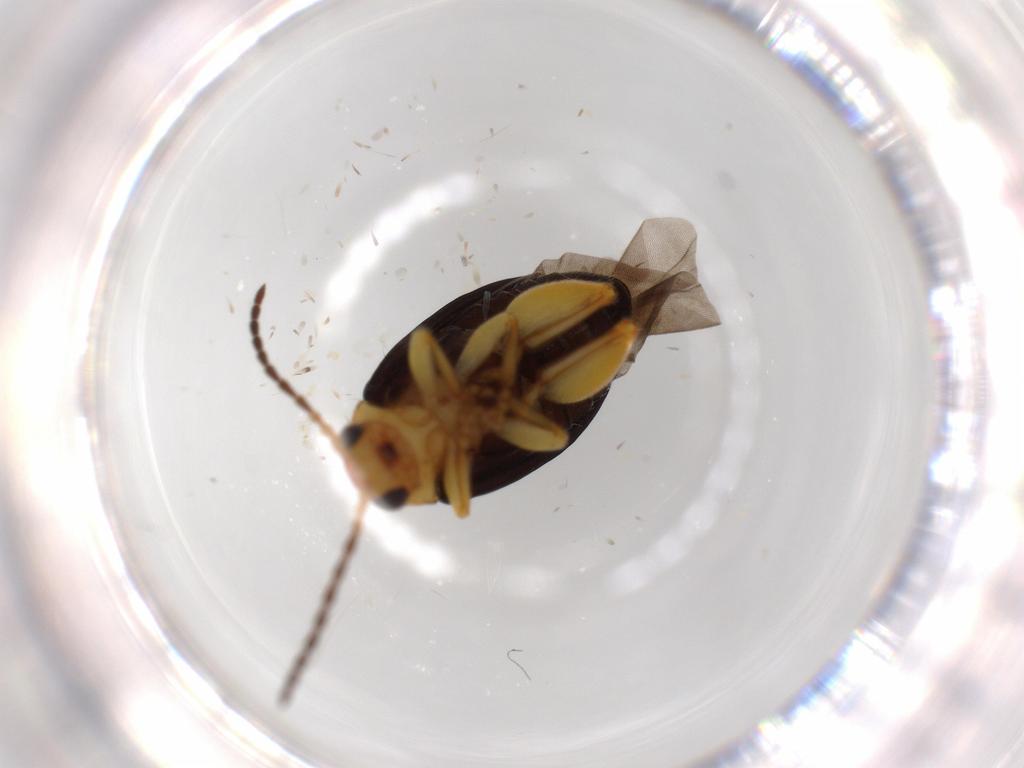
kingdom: Animalia
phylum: Arthropoda
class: Insecta
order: Coleoptera
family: Chrysomelidae
